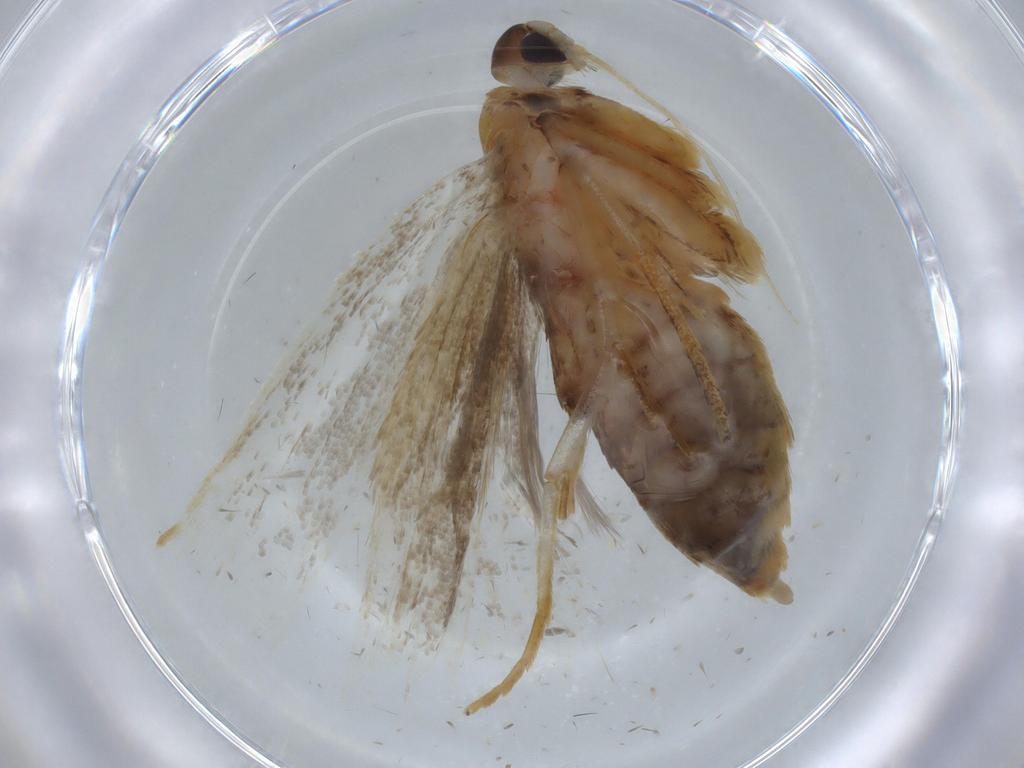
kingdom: Animalia
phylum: Arthropoda
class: Insecta
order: Lepidoptera
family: Lecithoceridae
